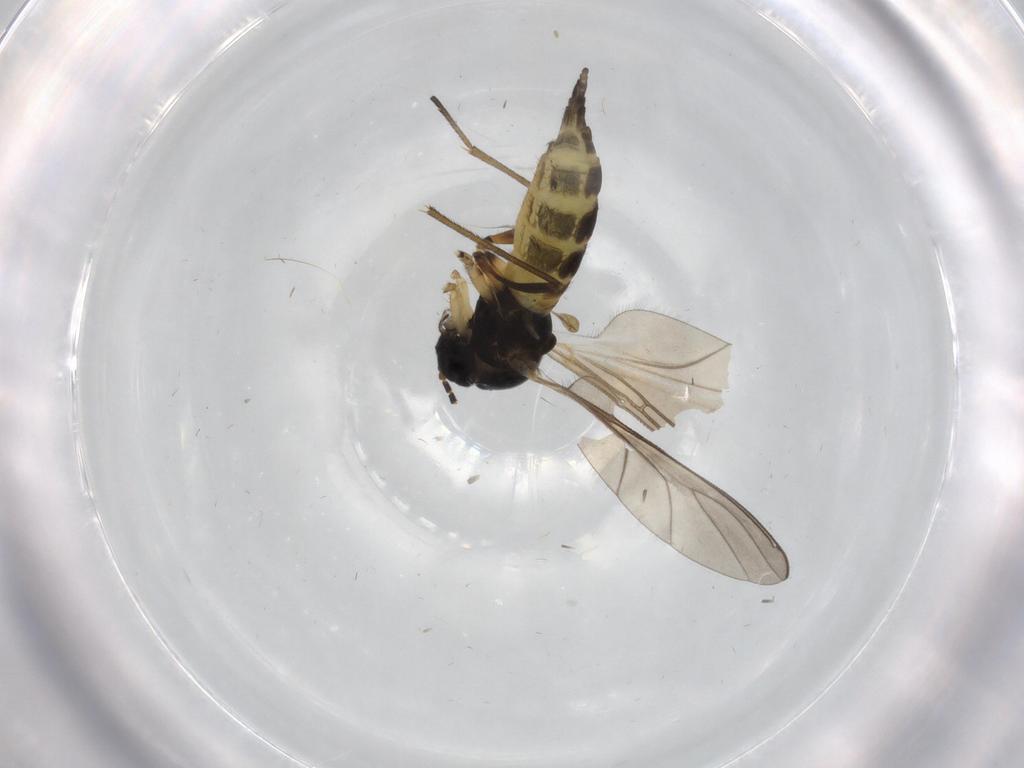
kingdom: Animalia
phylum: Arthropoda
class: Insecta
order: Diptera
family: Sciaridae
